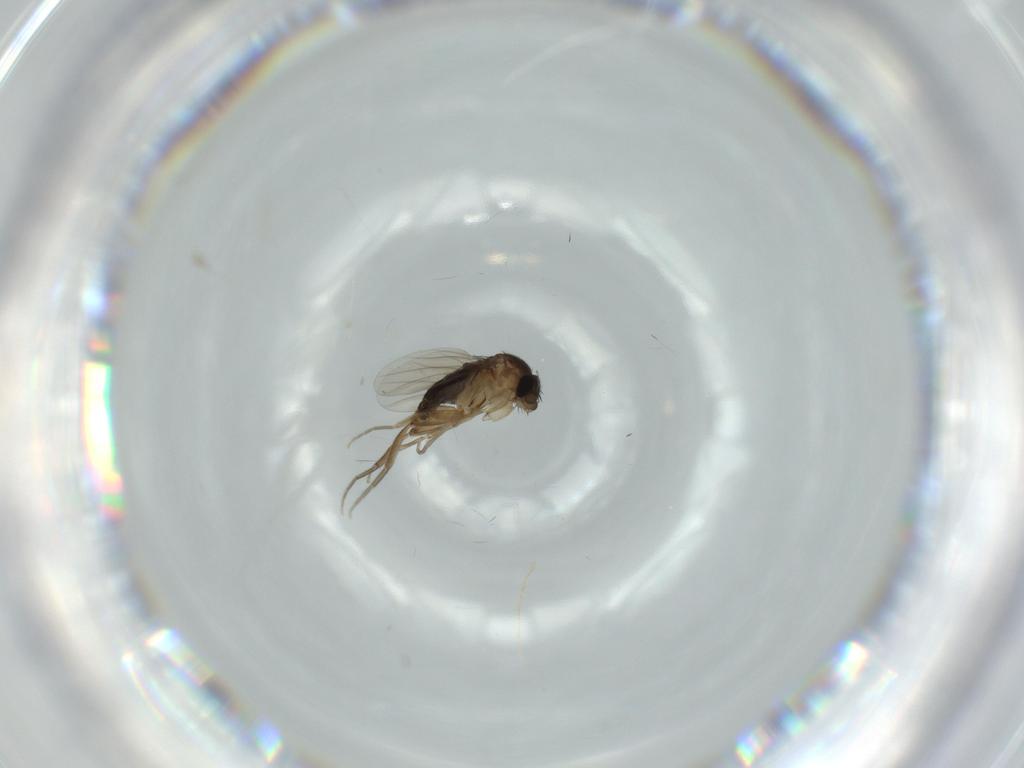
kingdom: Animalia
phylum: Arthropoda
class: Insecta
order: Diptera
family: Phoridae
